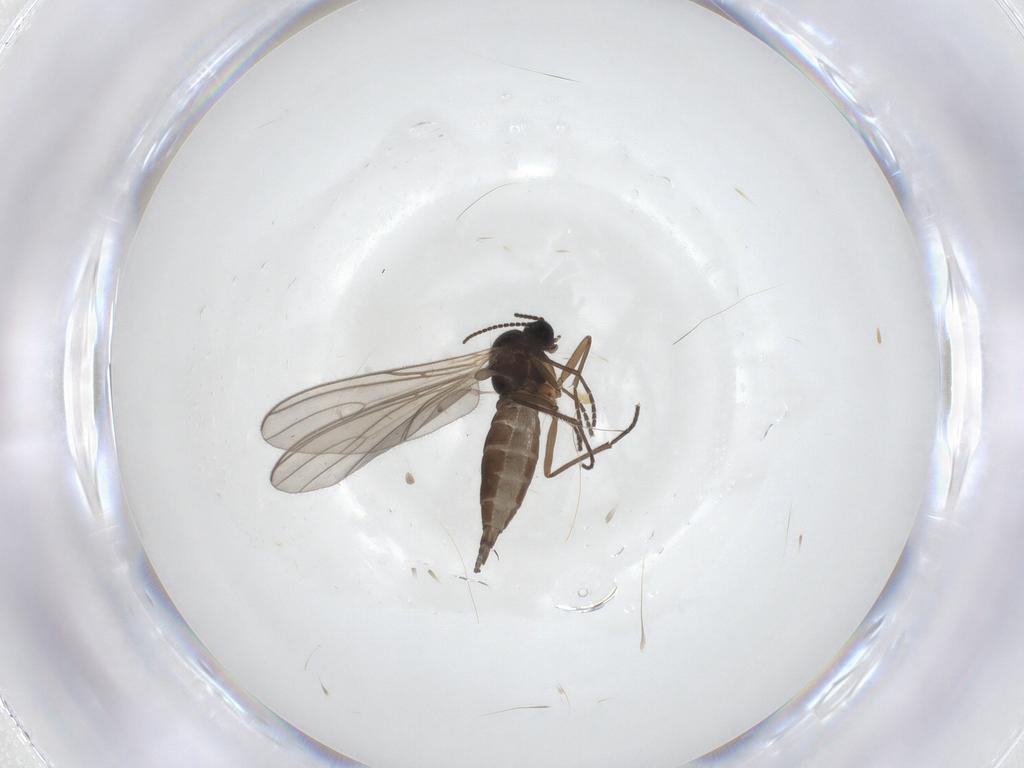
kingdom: Animalia
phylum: Arthropoda
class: Insecta
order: Diptera
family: Sciaridae
